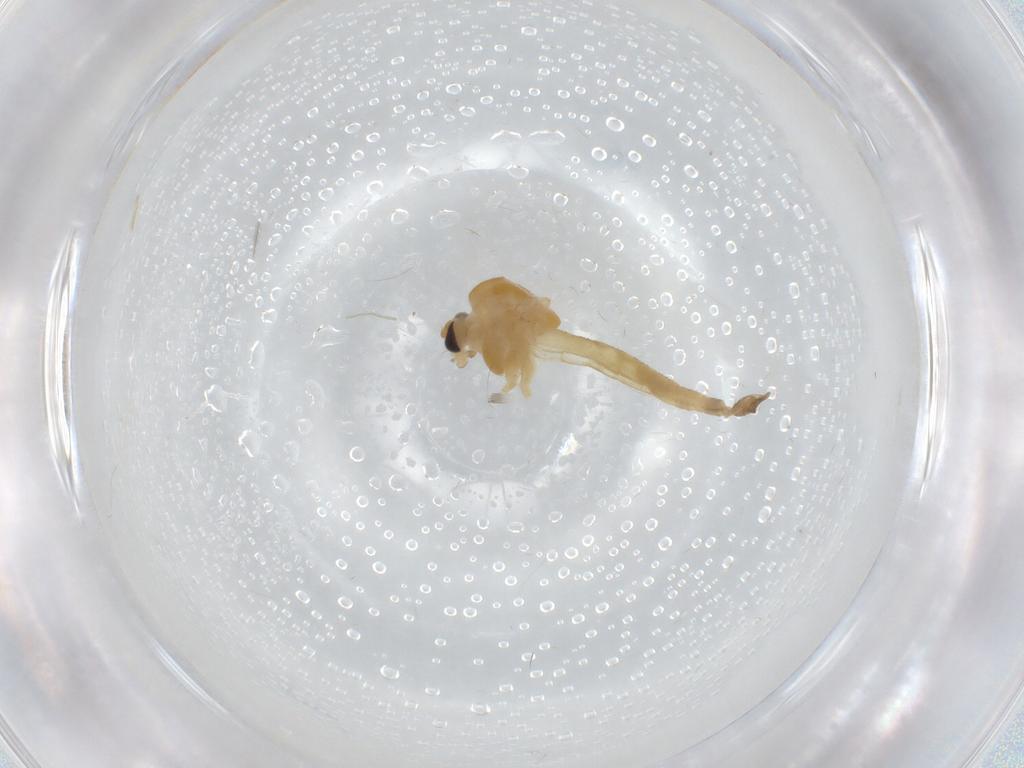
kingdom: Animalia
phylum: Arthropoda
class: Insecta
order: Diptera
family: Chironomidae
